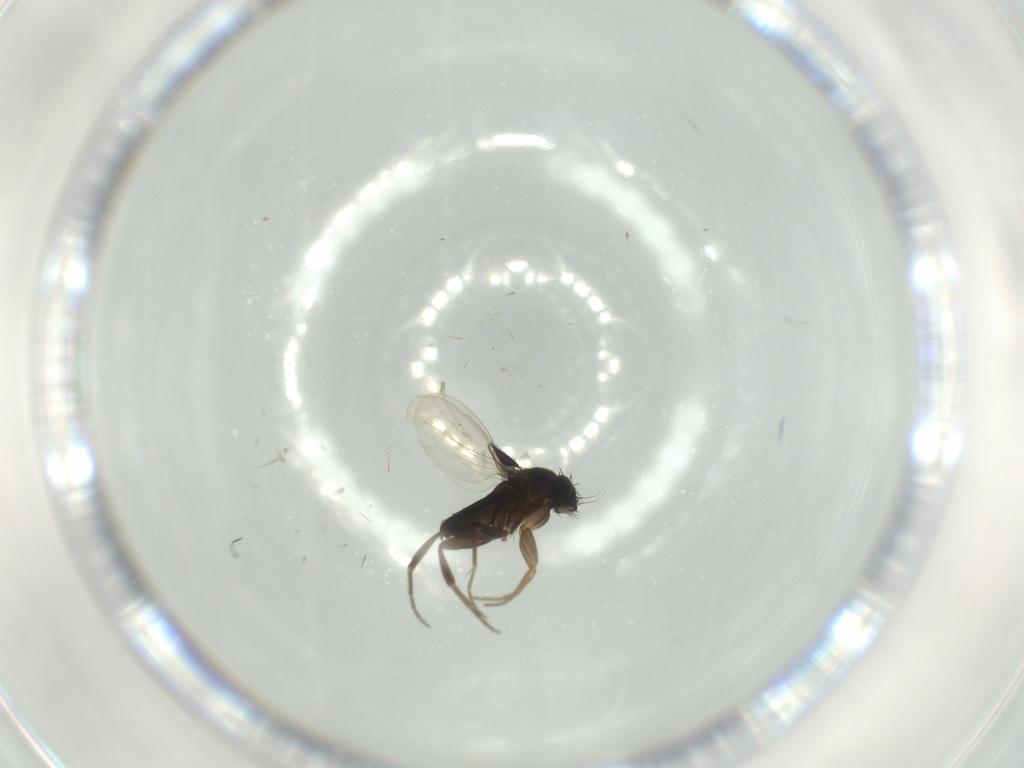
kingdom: Animalia
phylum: Arthropoda
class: Insecta
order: Diptera
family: Phoridae
